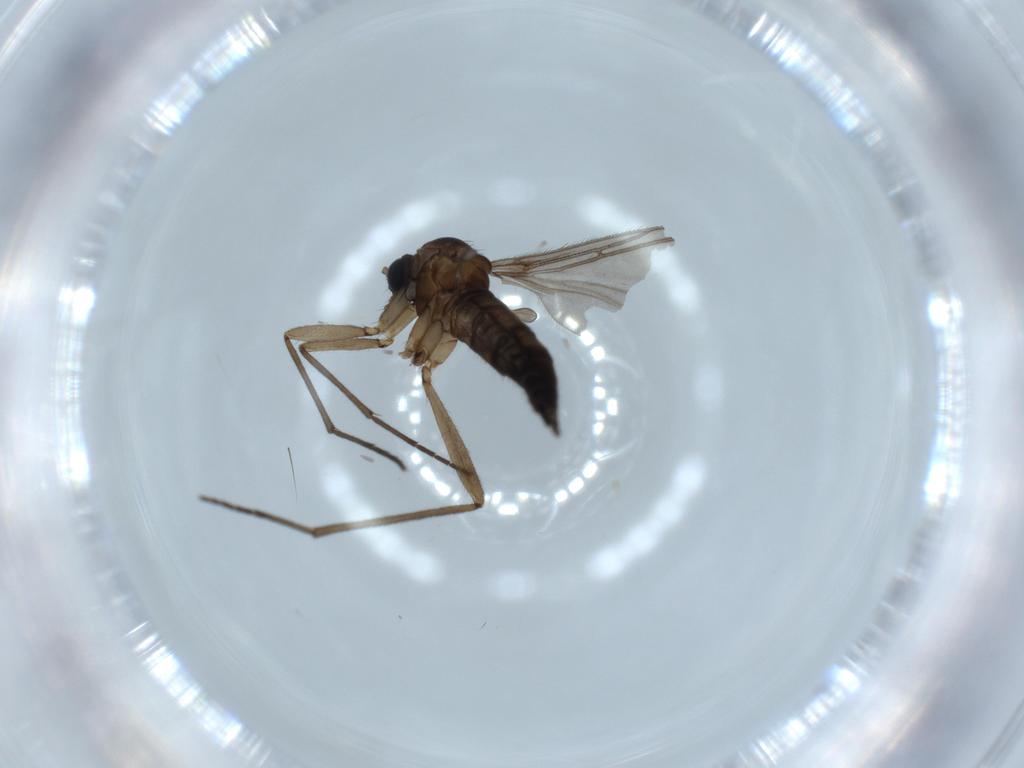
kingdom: Animalia
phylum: Arthropoda
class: Insecta
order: Diptera
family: Sciaridae
